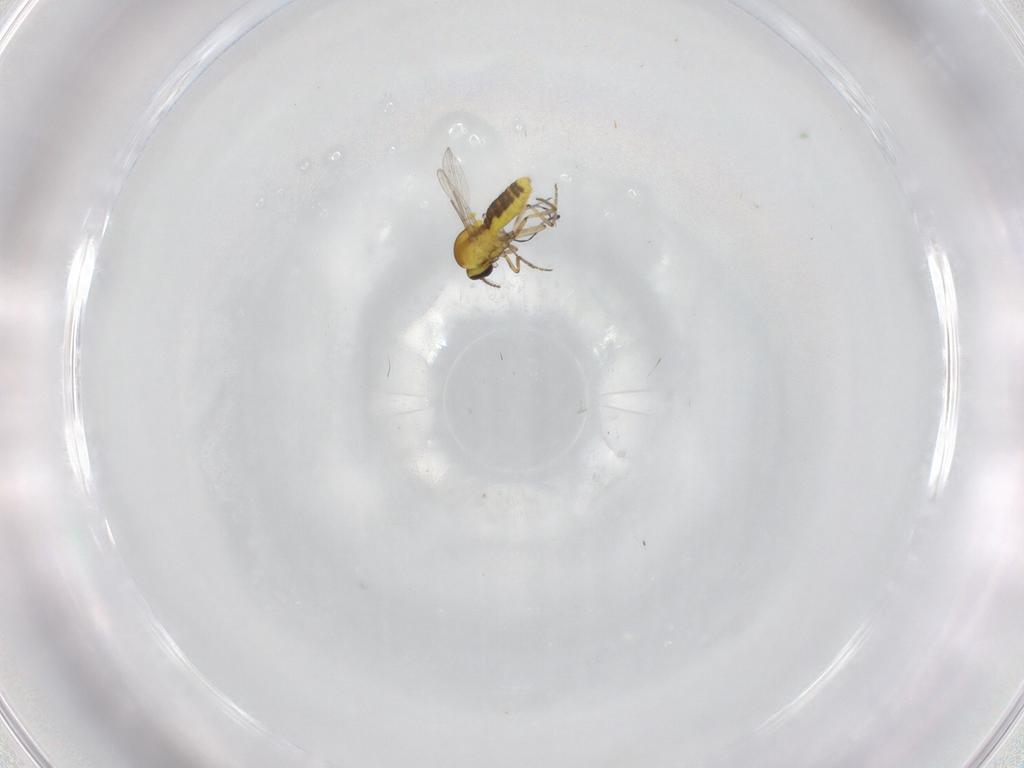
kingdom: Animalia
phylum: Arthropoda
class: Insecta
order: Diptera
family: Ceratopogonidae
